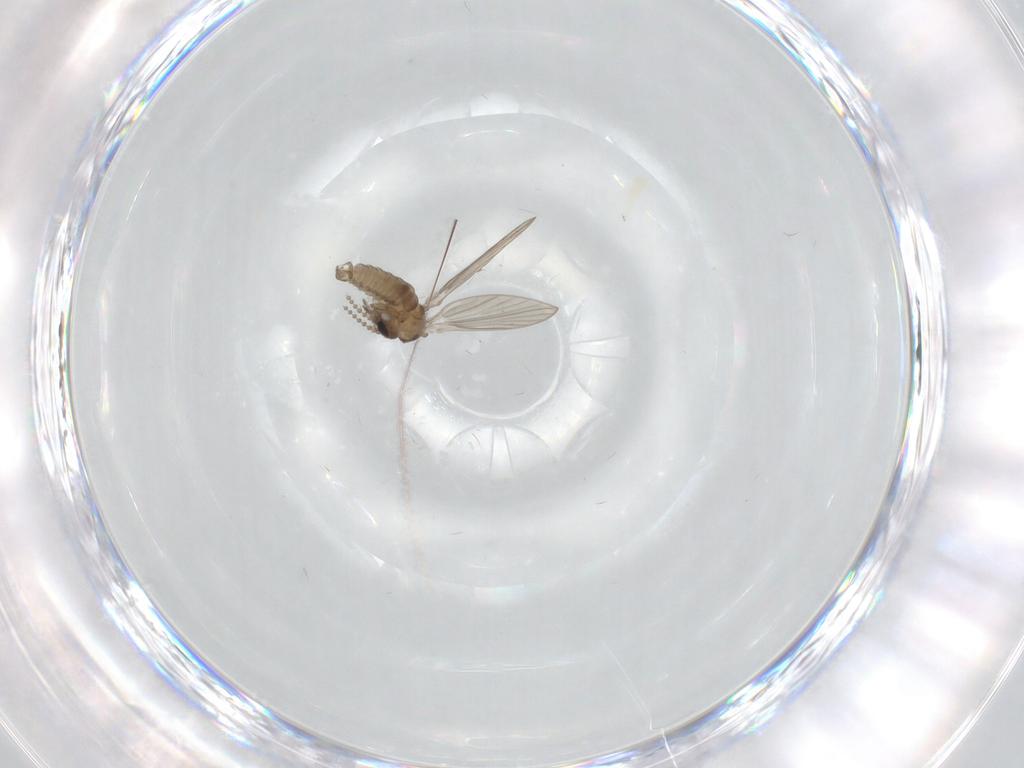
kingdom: Animalia
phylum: Arthropoda
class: Insecta
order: Diptera
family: Psychodidae
